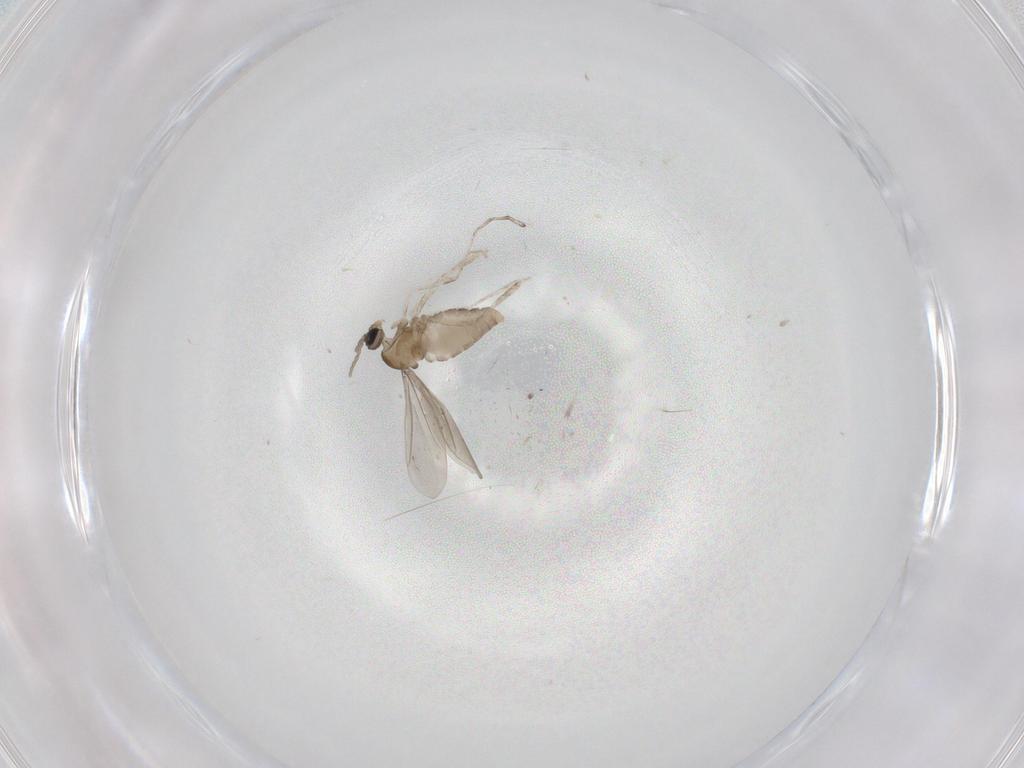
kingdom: Animalia
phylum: Arthropoda
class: Insecta
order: Diptera
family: Cecidomyiidae
